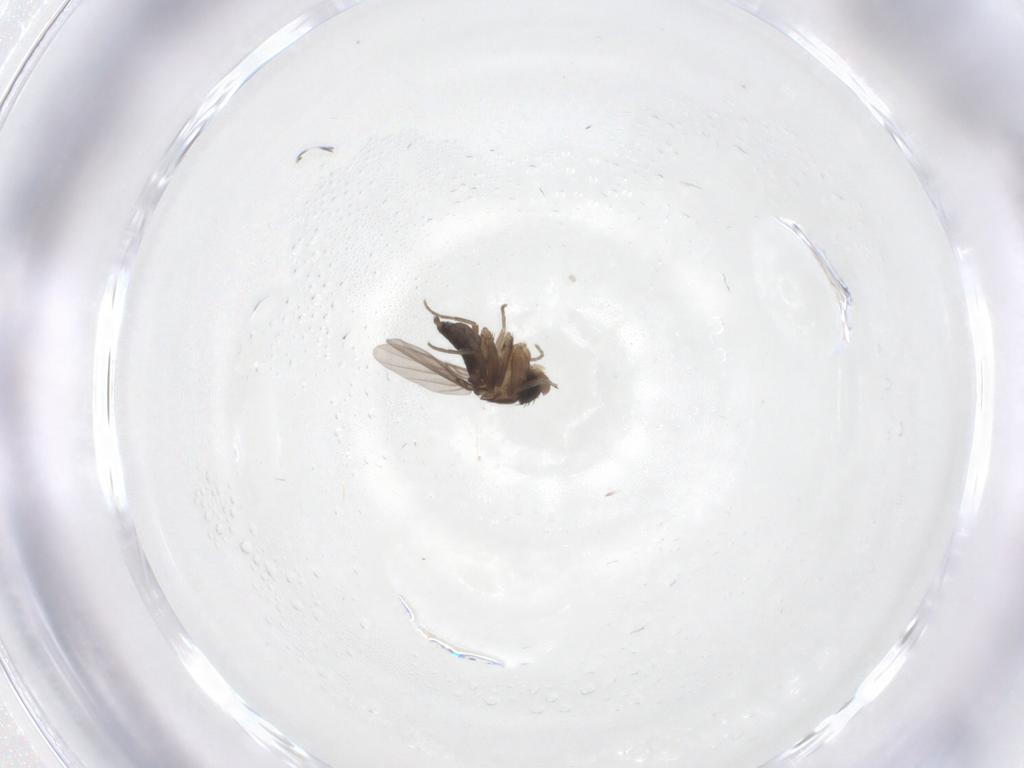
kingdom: Animalia
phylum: Arthropoda
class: Insecta
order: Diptera
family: Phoridae
